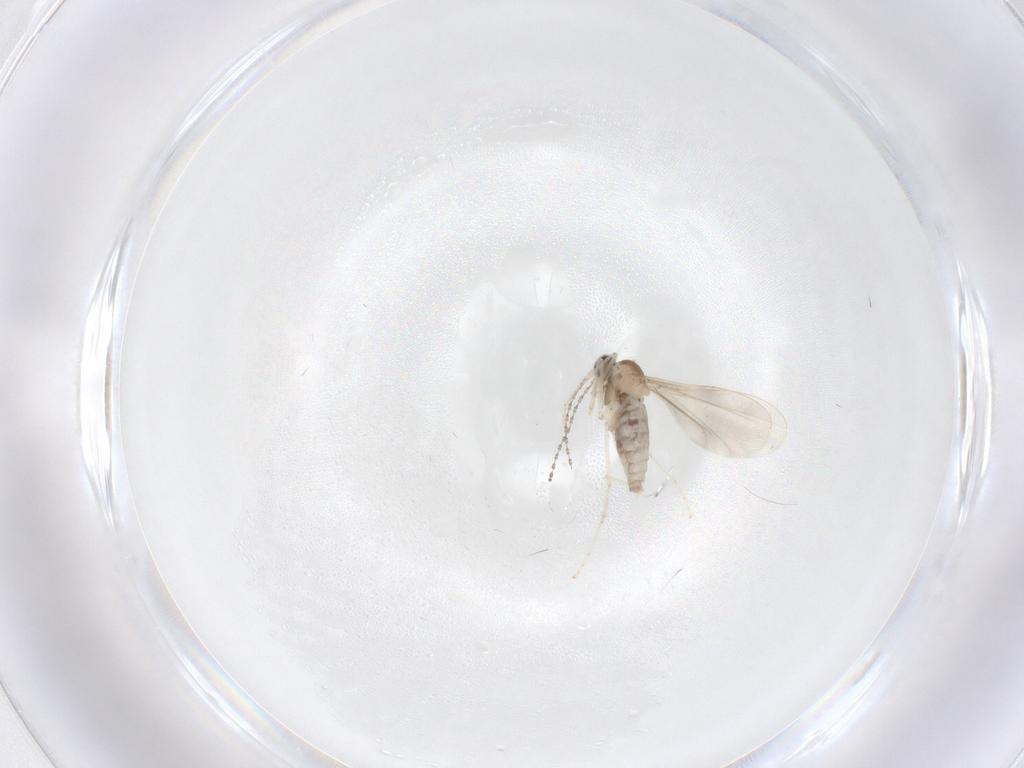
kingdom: Animalia
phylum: Arthropoda
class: Insecta
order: Diptera
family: Cecidomyiidae
